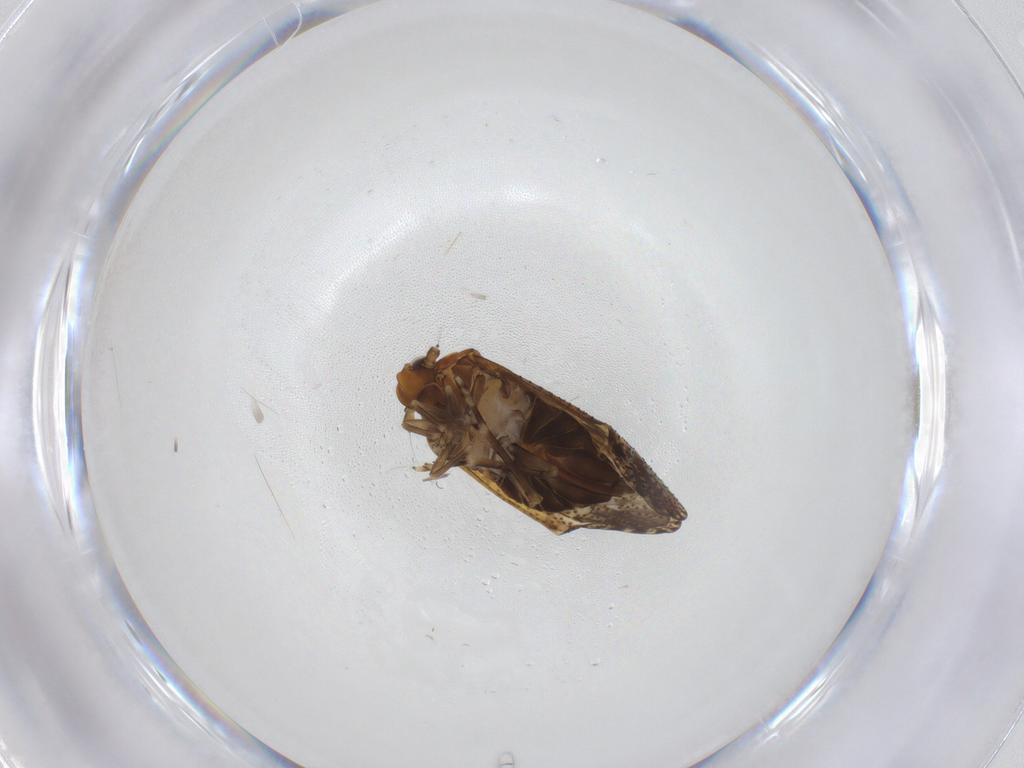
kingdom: Animalia
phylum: Arthropoda
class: Insecta
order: Hemiptera
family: Delphacidae
